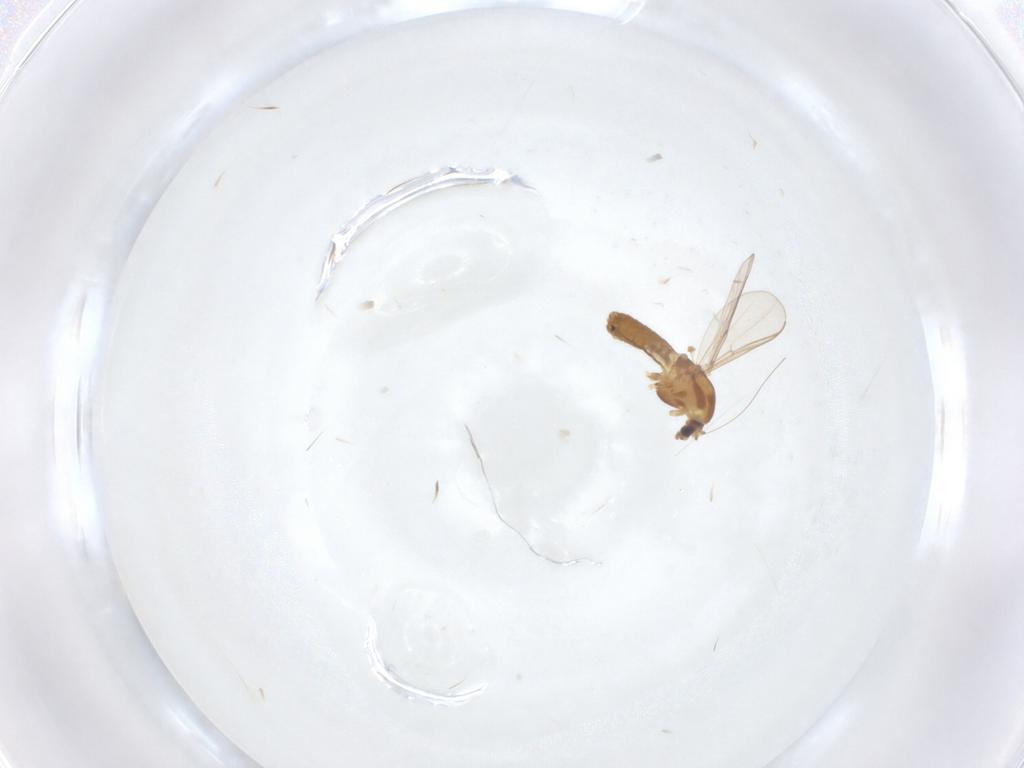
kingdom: Animalia
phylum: Arthropoda
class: Insecta
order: Diptera
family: Chironomidae
